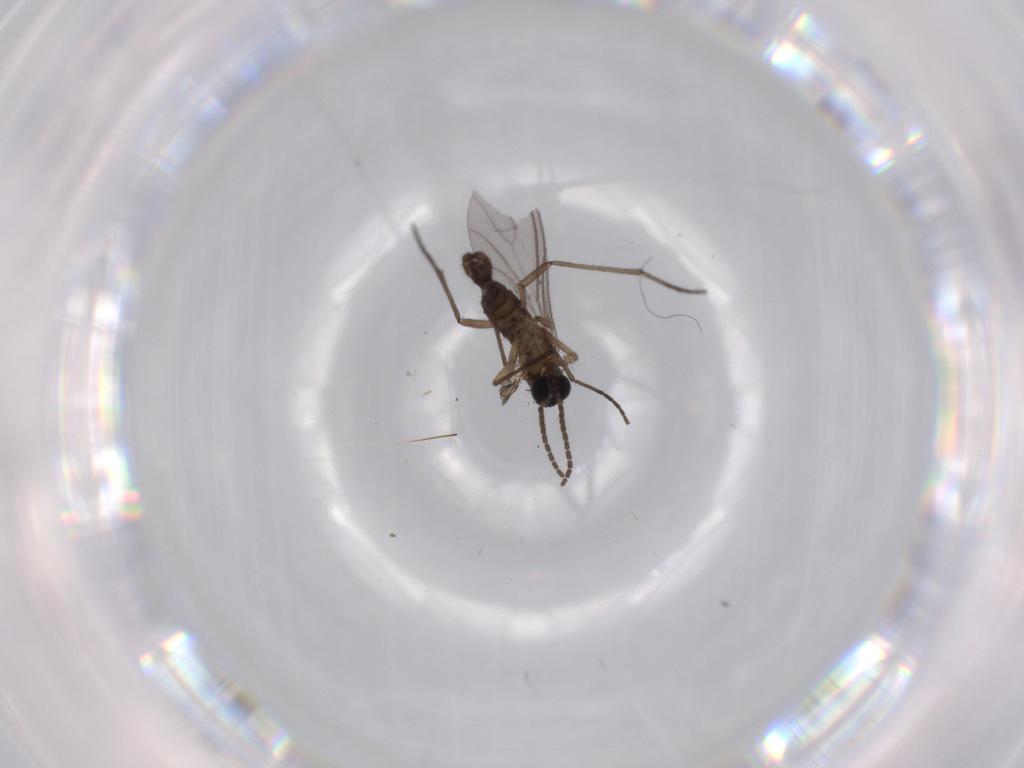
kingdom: Animalia
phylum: Arthropoda
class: Insecta
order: Diptera
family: Sciaridae
